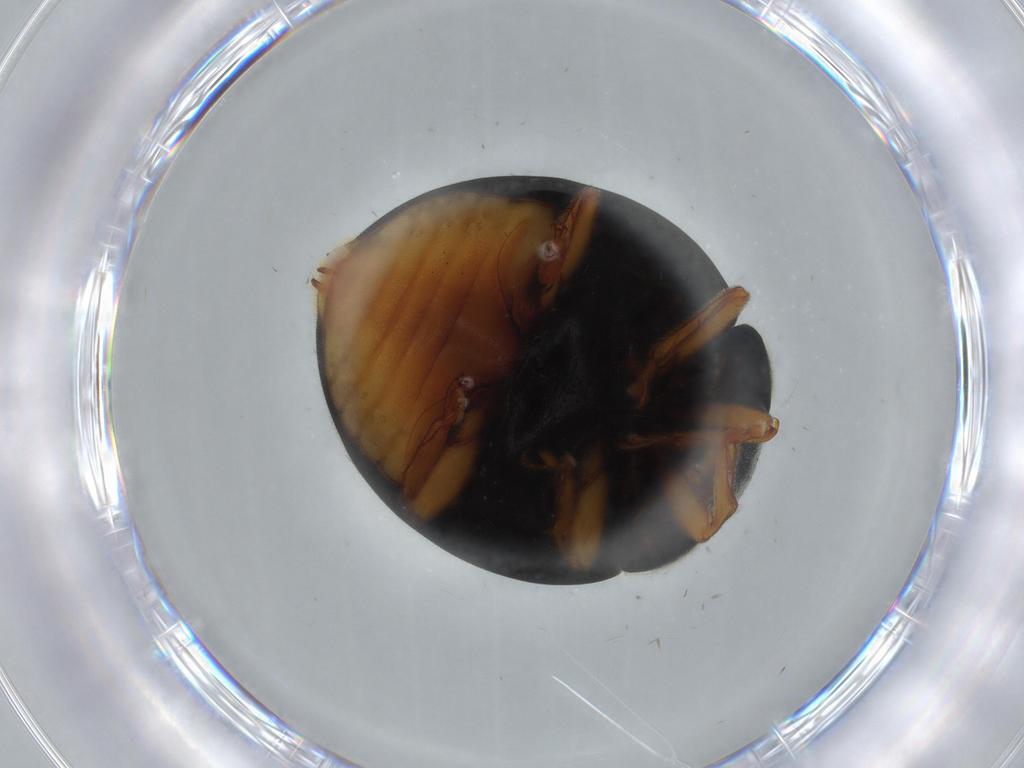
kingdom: Animalia
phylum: Arthropoda
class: Insecta
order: Coleoptera
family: Coccinellidae
